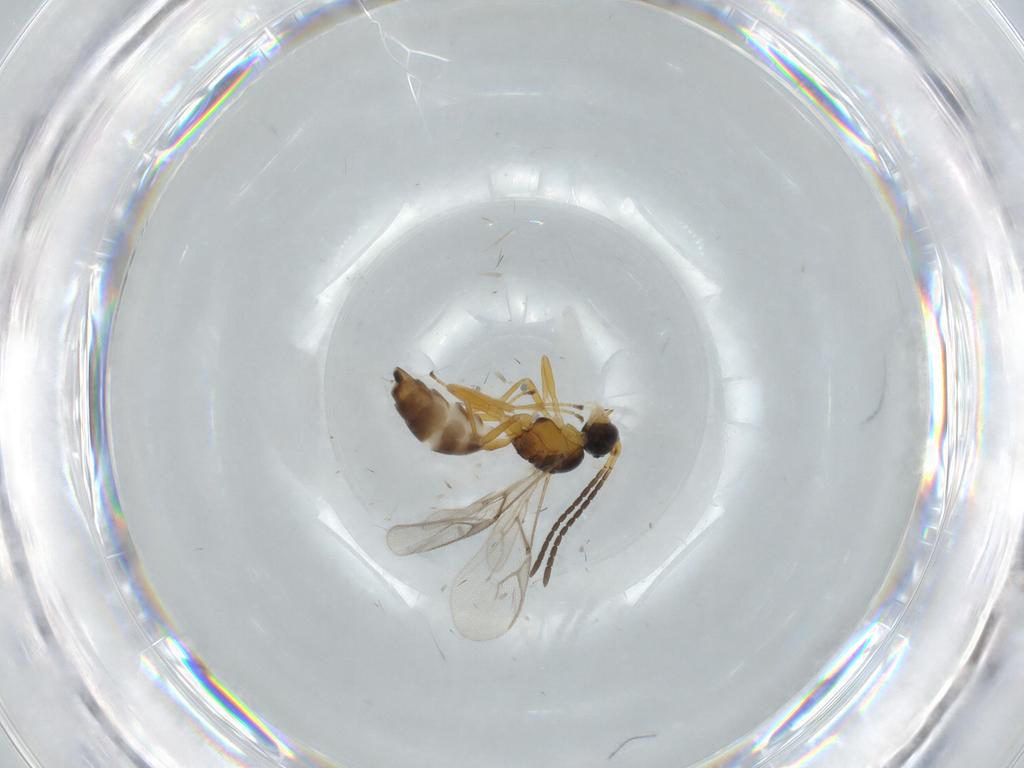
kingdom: Animalia
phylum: Arthropoda
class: Insecta
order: Hymenoptera
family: Braconidae
